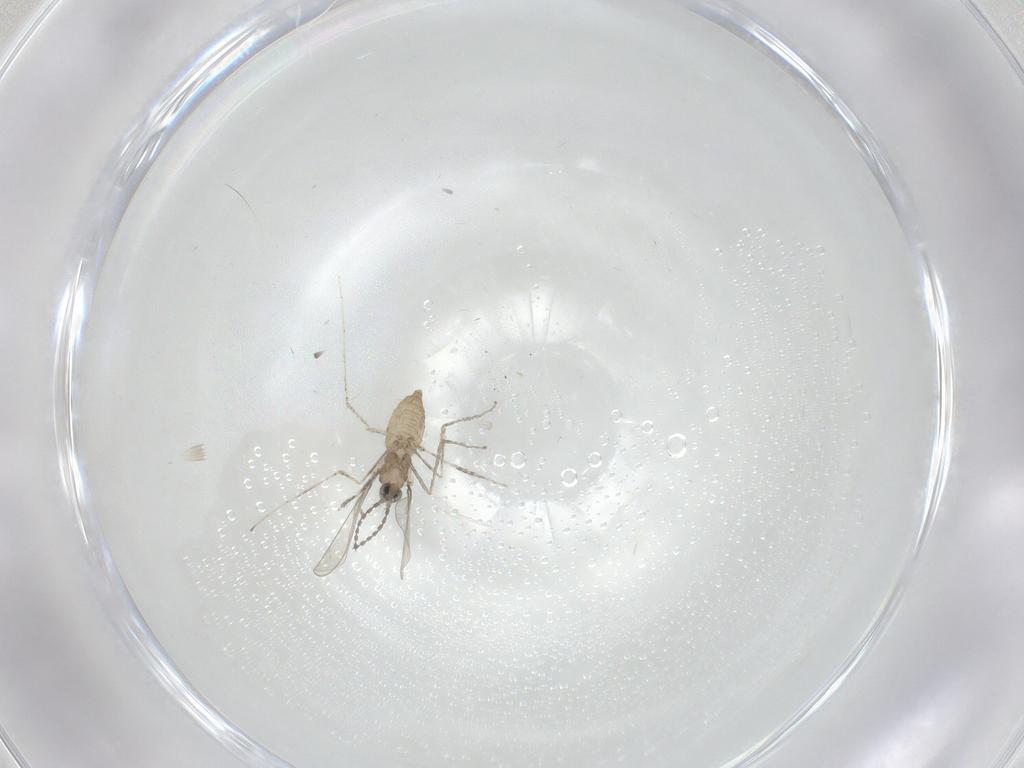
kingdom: Animalia
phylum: Arthropoda
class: Insecta
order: Diptera
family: Cecidomyiidae
